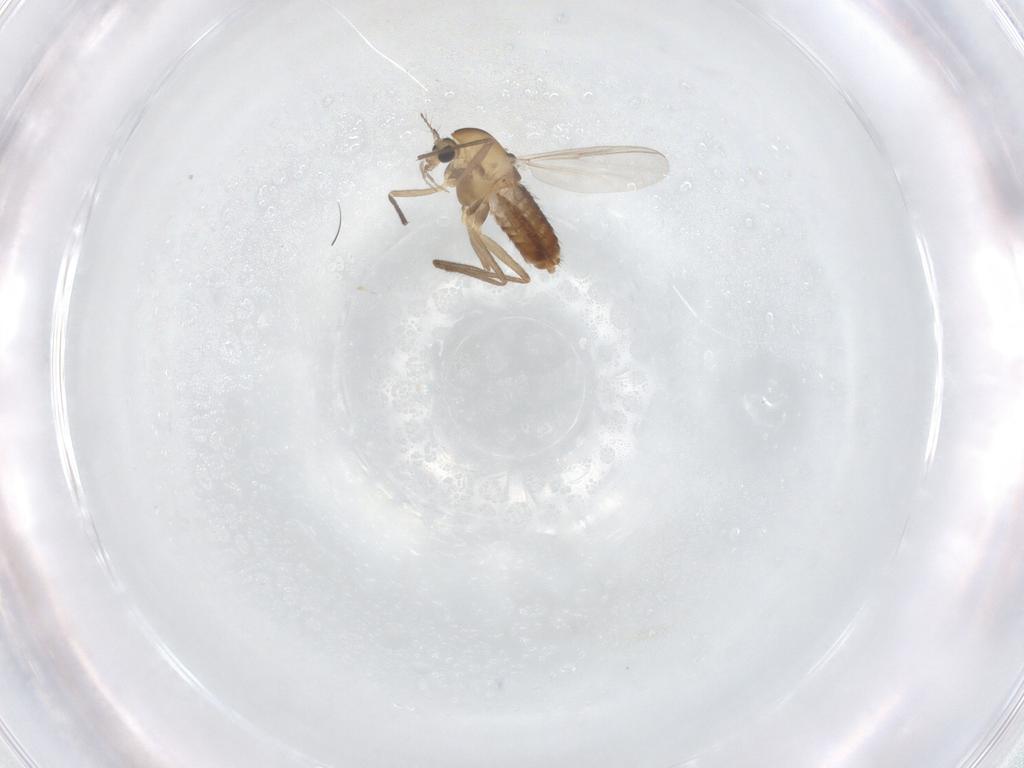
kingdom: Animalia
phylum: Arthropoda
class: Insecta
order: Diptera
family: Chironomidae
